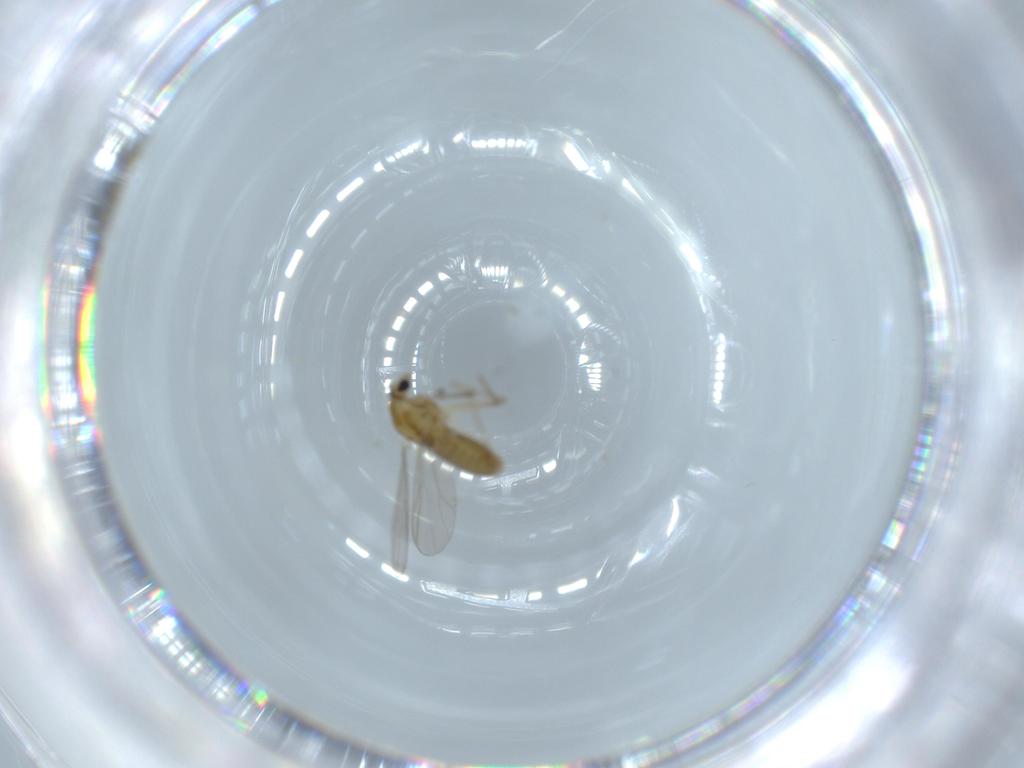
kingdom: Animalia
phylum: Arthropoda
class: Insecta
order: Diptera
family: Chironomidae
